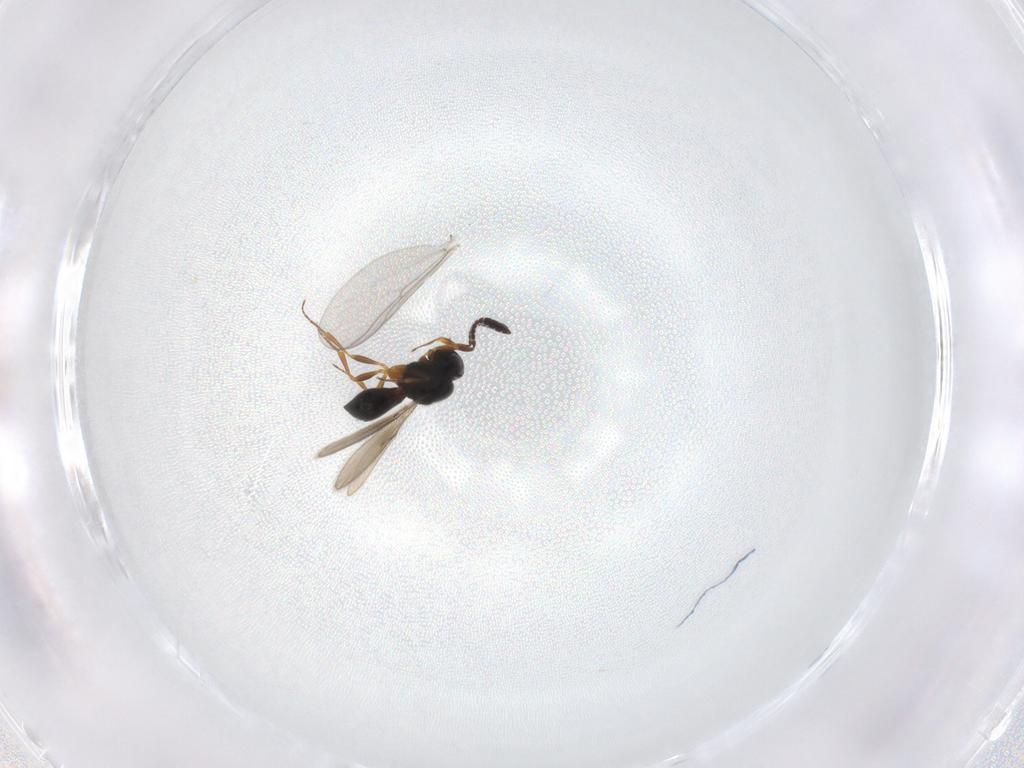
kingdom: Animalia
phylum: Arthropoda
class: Insecta
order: Hymenoptera
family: Scelionidae
